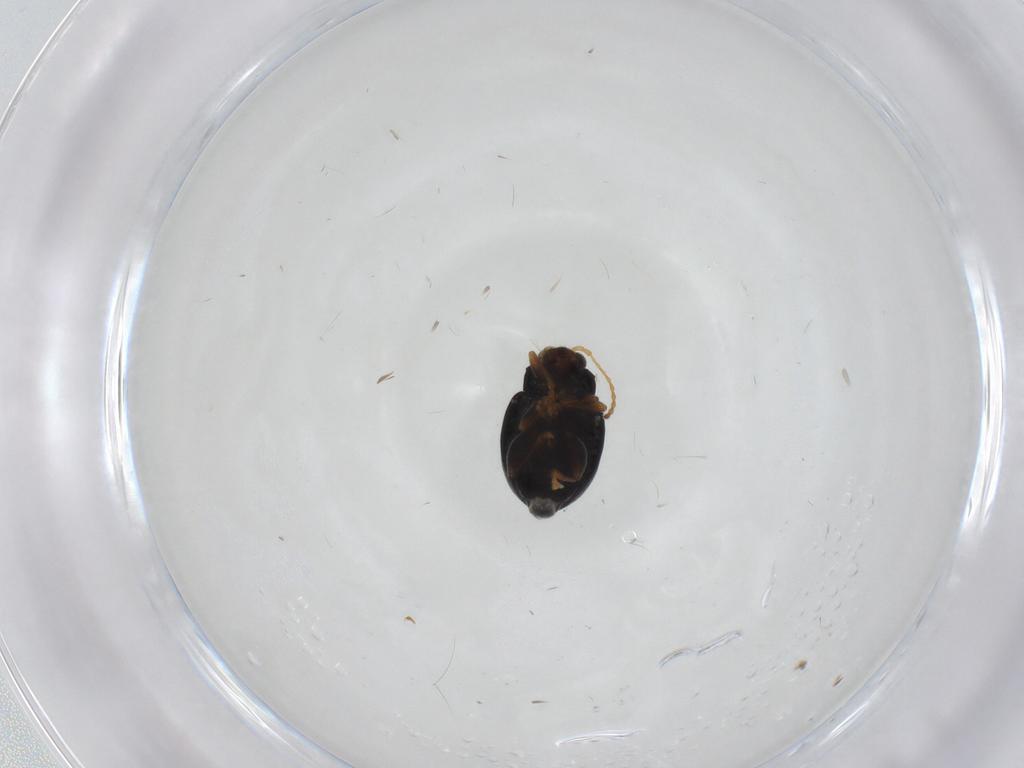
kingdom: Animalia
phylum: Arthropoda
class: Insecta
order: Coleoptera
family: Chrysomelidae
